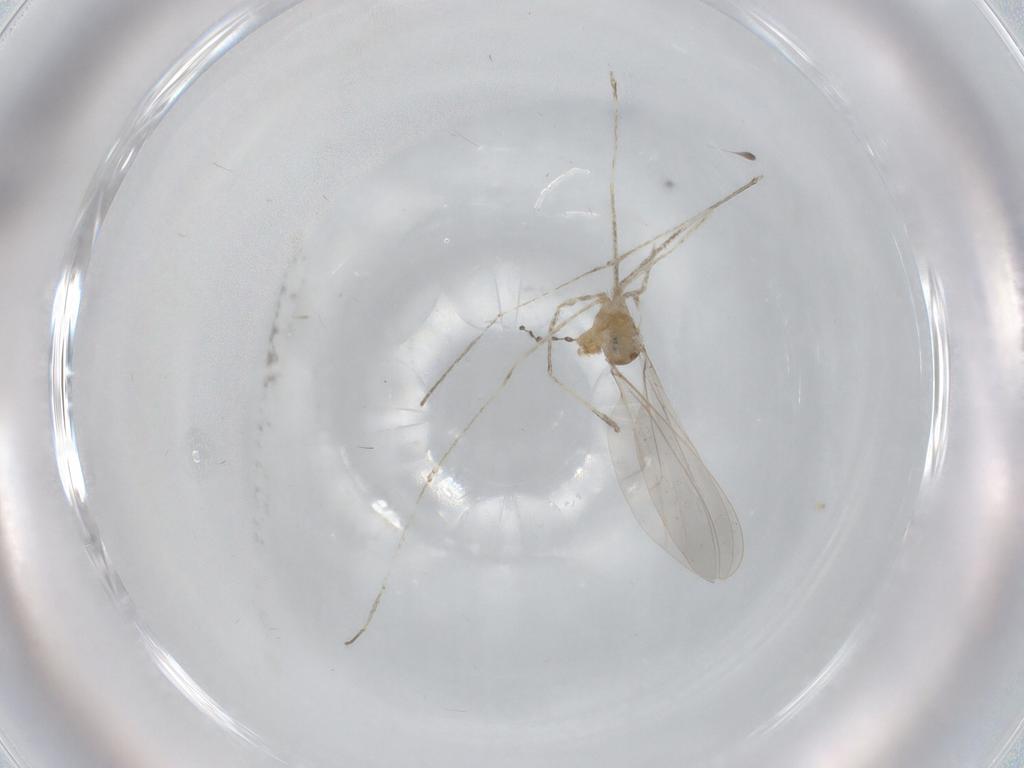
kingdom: Animalia
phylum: Arthropoda
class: Insecta
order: Diptera
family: Cecidomyiidae
